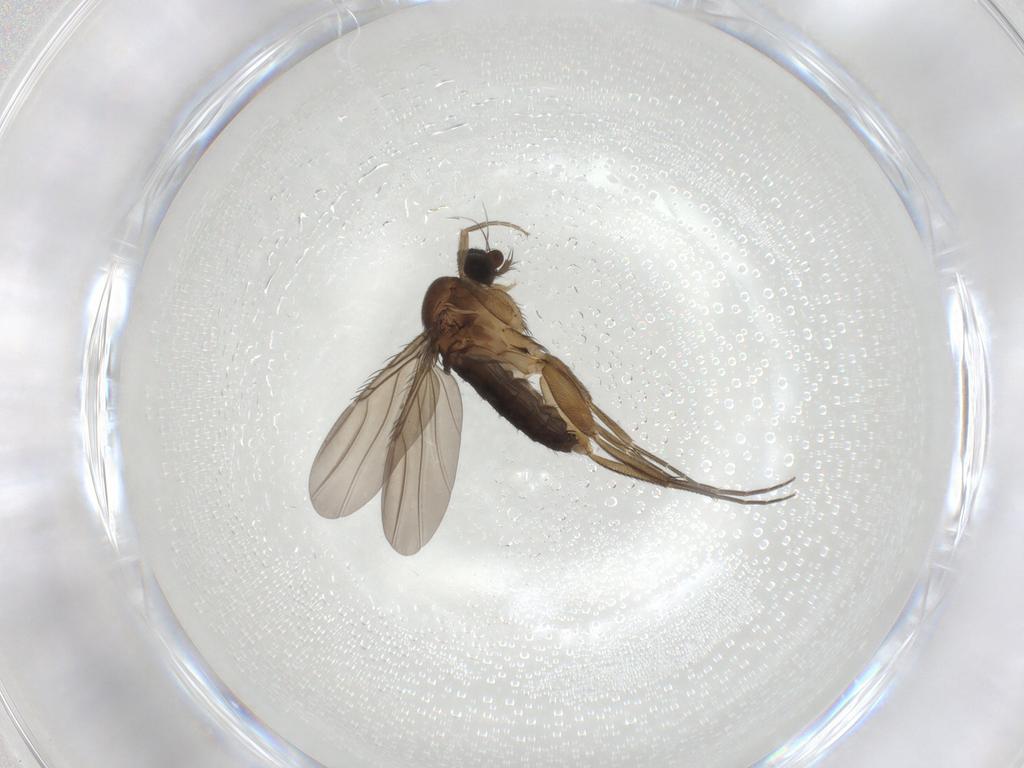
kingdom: Animalia
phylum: Arthropoda
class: Insecta
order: Diptera
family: Phoridae
